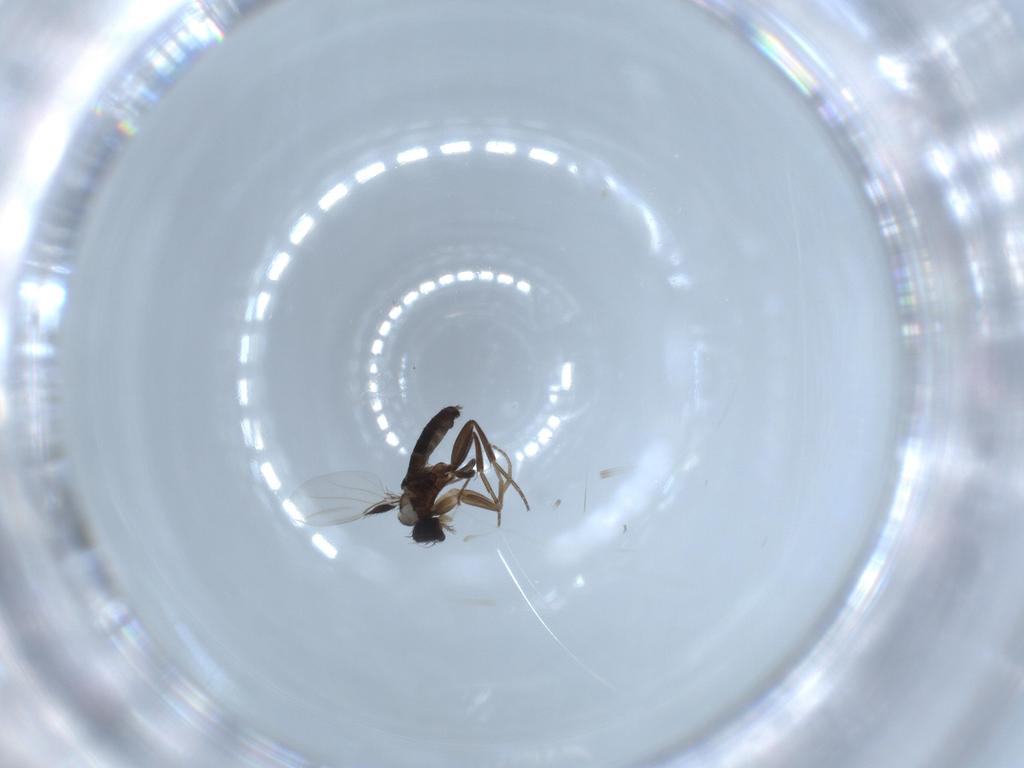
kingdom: Animalia
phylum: Arthropoda
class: Insecta
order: Diptera
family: Phoridae
